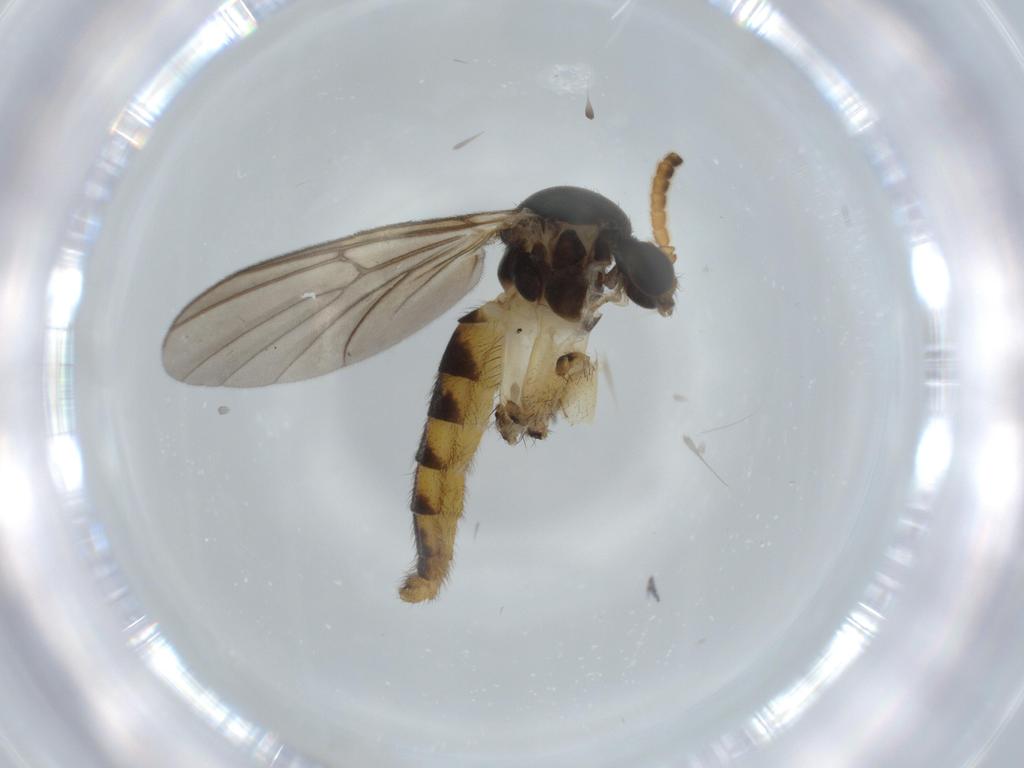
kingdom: Animalia
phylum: Arthropoda
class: Insecta
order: Diptera
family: Sciaridae
